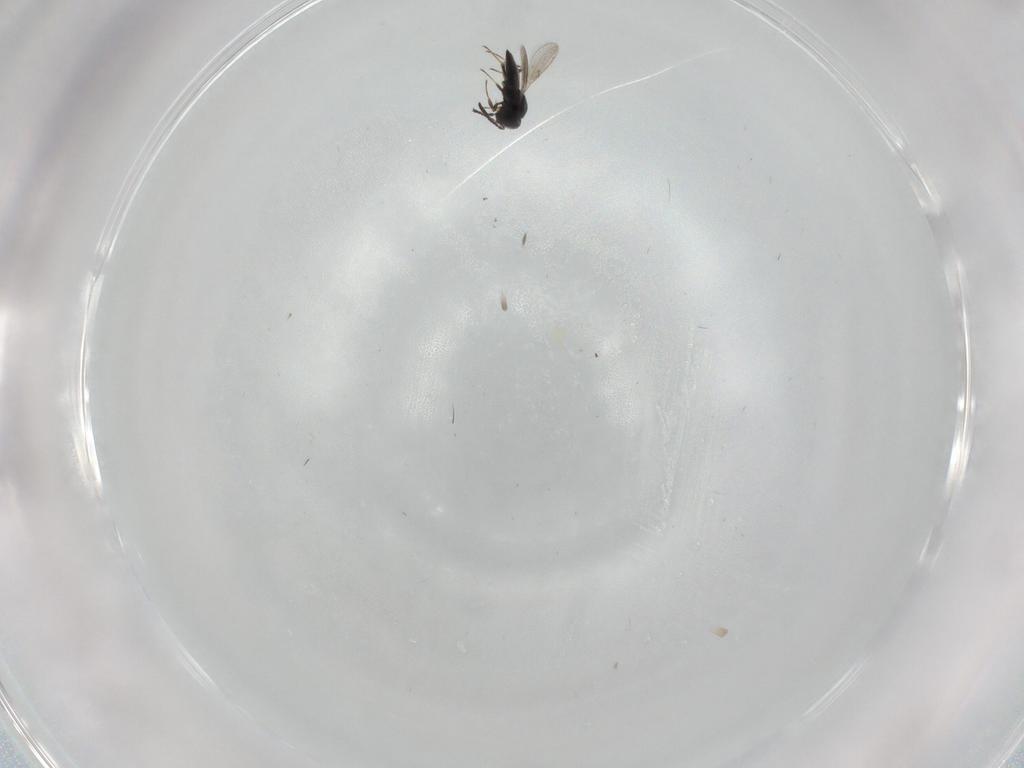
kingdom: Animalia
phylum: Arthropoda
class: Insecta
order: Hymenoptera
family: Scelionidae
